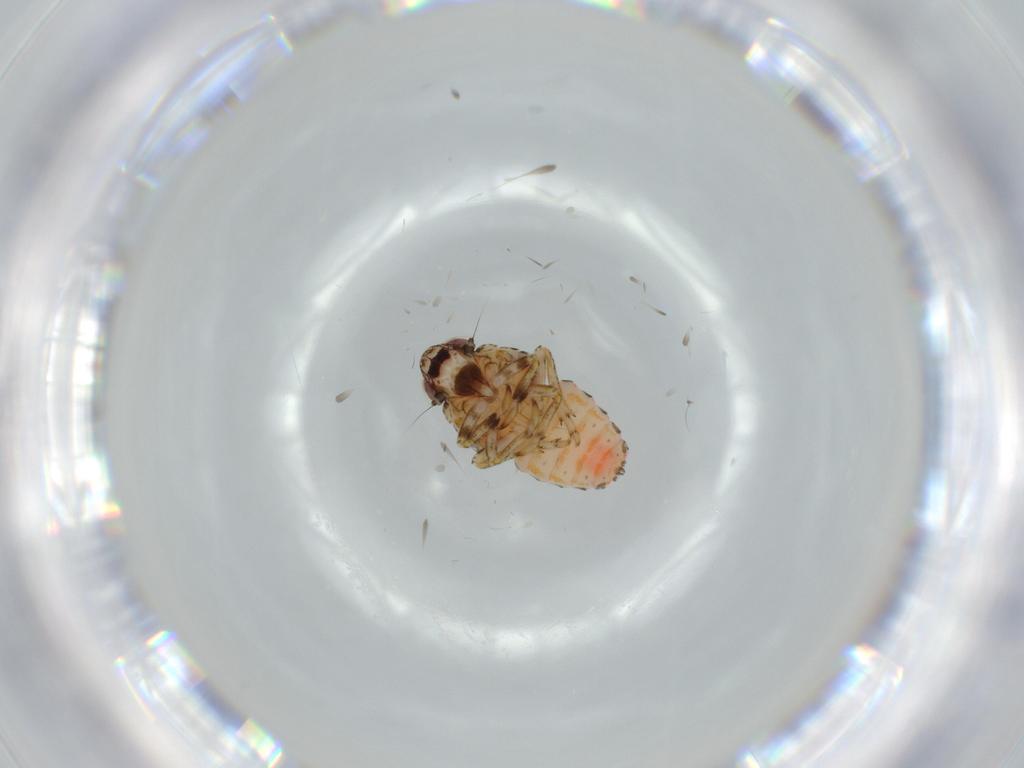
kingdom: Animalia
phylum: Arthropoda
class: Insecta
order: Hemiptera
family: Issidae
